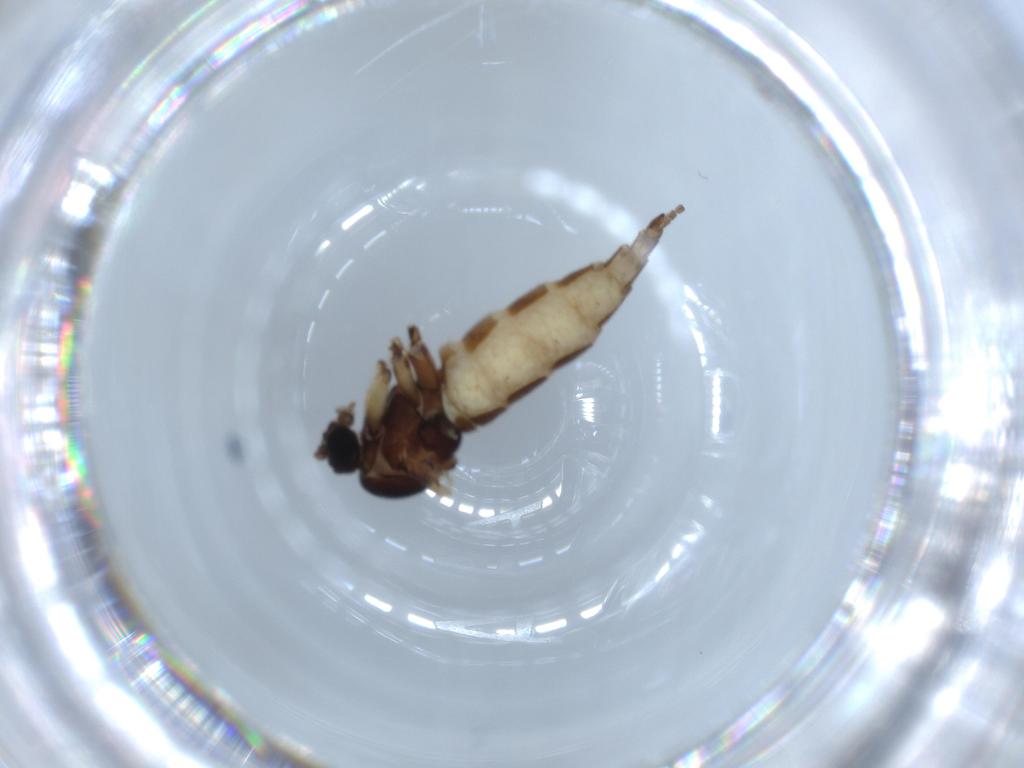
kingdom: Animalia
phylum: Arthropoda
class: Insecta
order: Diptera
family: Sciaridae
